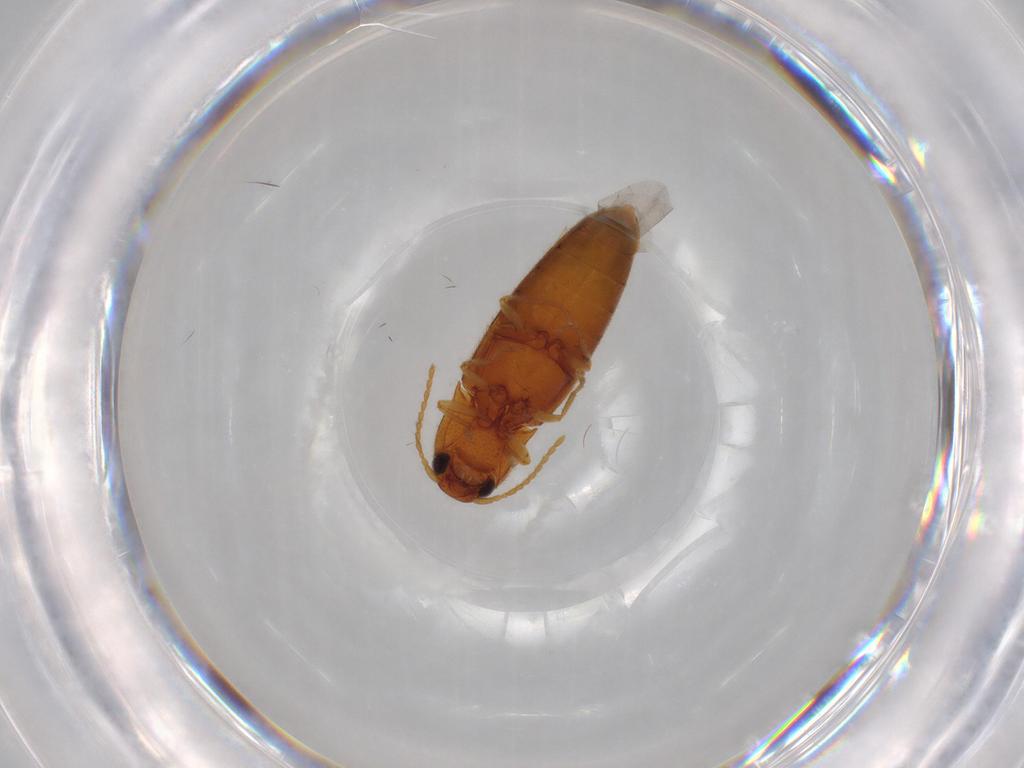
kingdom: Animalia
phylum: Arthropoda
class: Insecta
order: Coleoptera
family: Elateridae
